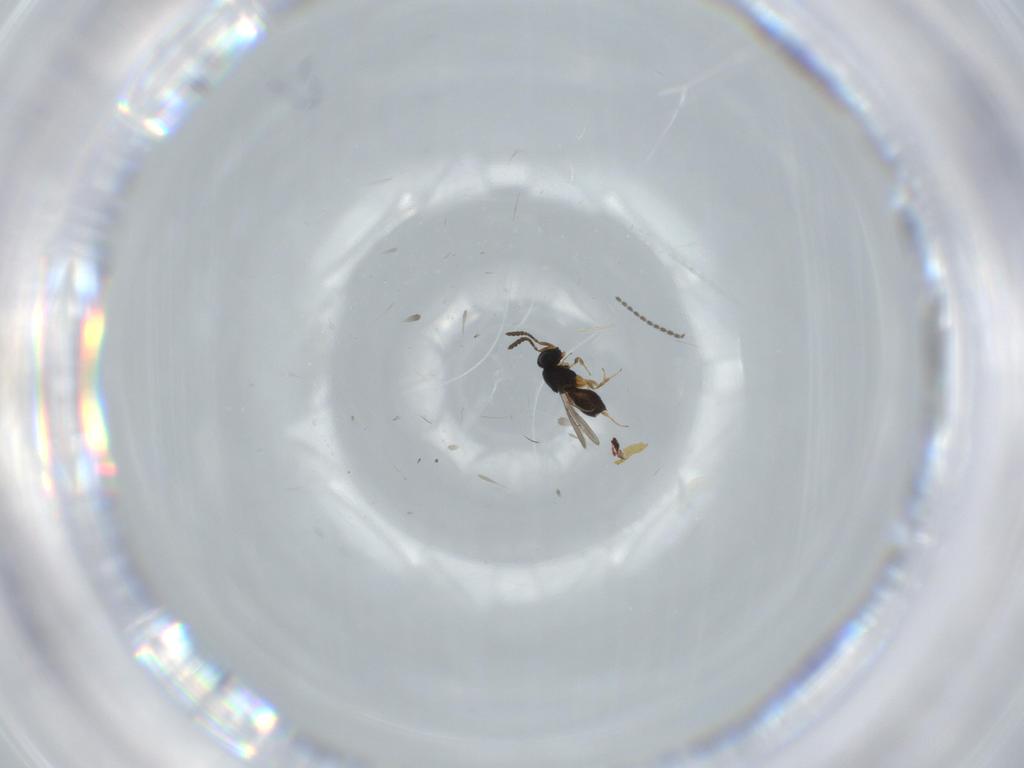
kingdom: Animalia
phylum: Arthropoda
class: Insecta
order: Hymenoptera
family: Scelionidae
